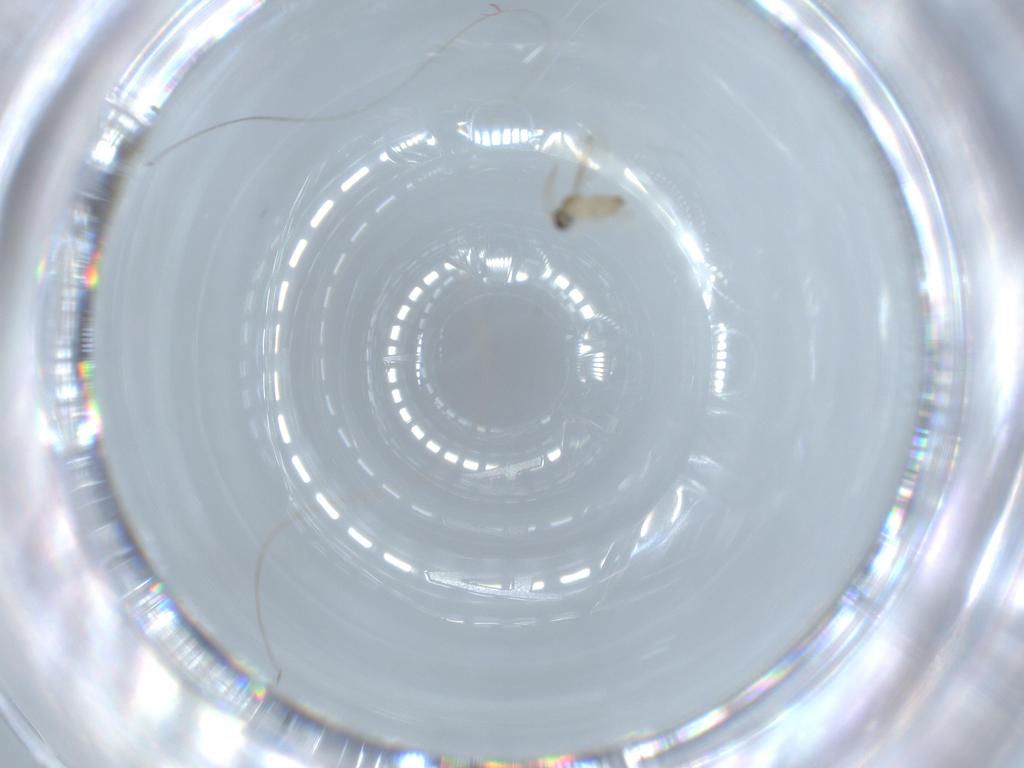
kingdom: Animalia
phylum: Arthropoda
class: Insecta
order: Diptera
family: Cecidomyiidae
